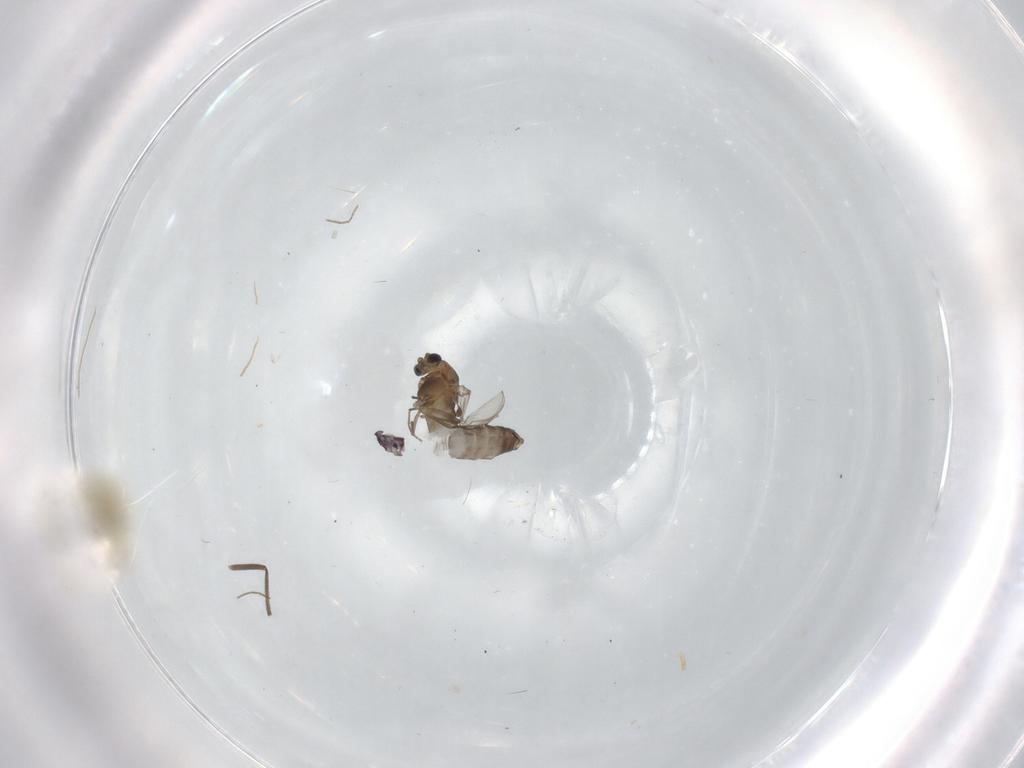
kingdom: Animalia
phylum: Arthropoda
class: Insecta
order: Diptera
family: Chironomidae
